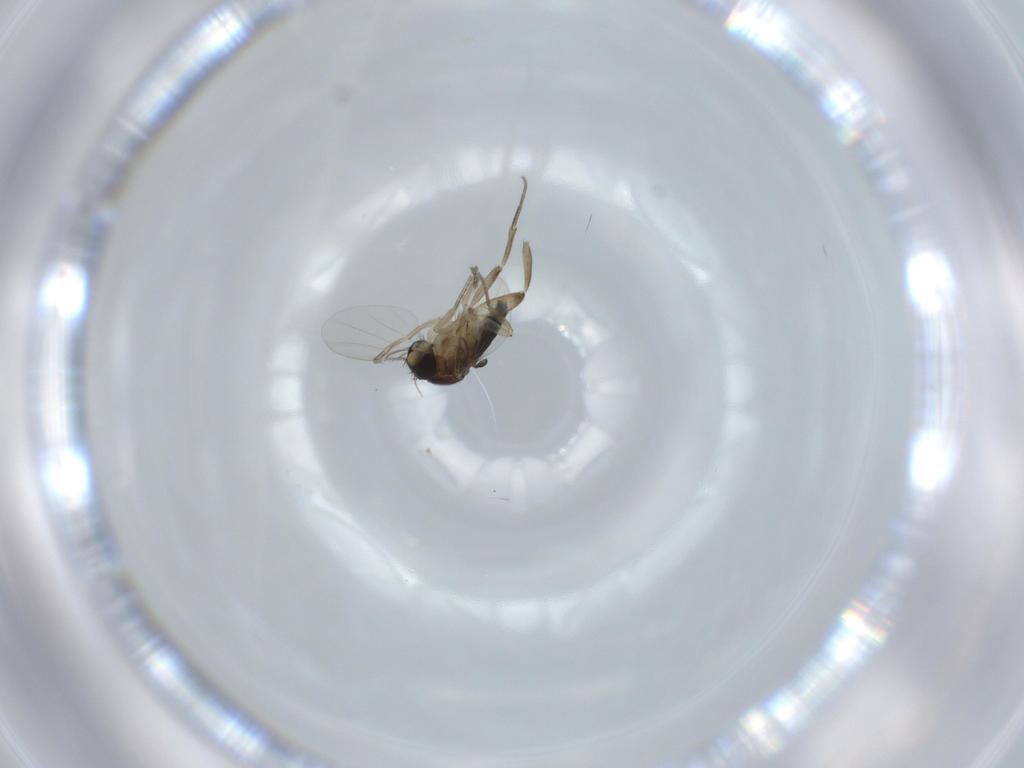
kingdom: Animalia
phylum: Arthropoda
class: Insecta
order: Diptera
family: Phoridae
